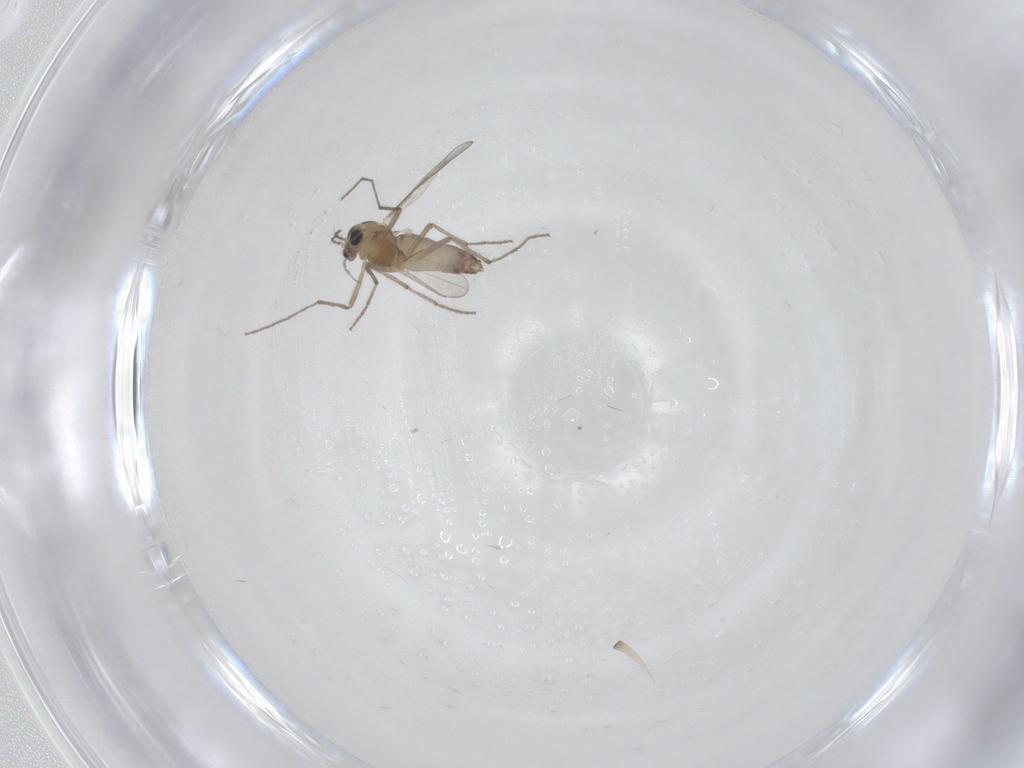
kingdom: Animalia
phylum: Arthropoda
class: Insecta
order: Diptera
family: Chironomidae
